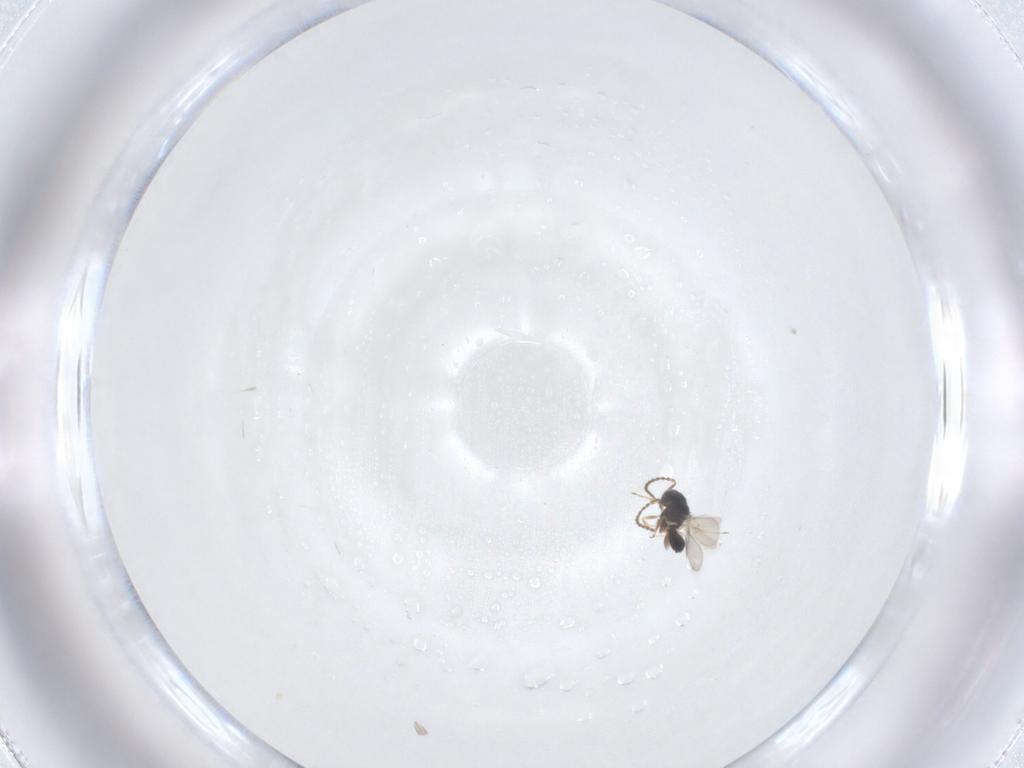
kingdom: Animalia
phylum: Arthropoda
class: Insecta
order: Hymenoptera
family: Scelionidae
